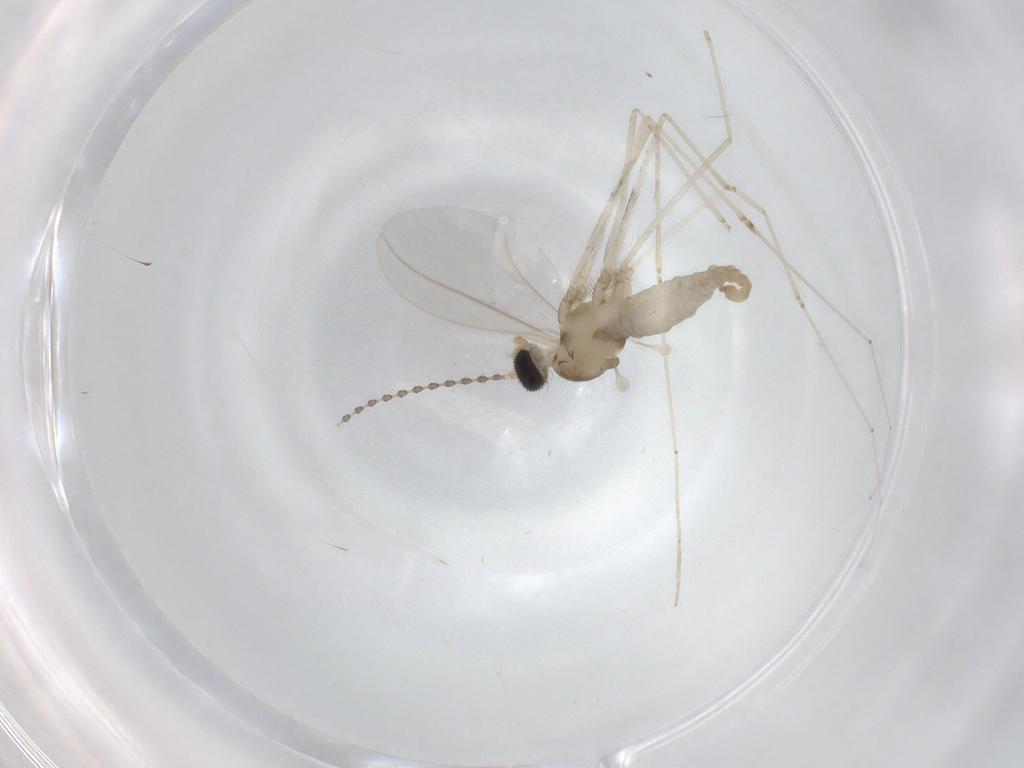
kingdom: Animalia
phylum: Arthropoda
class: Insecta
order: Diptera
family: Cecidomyiidae
